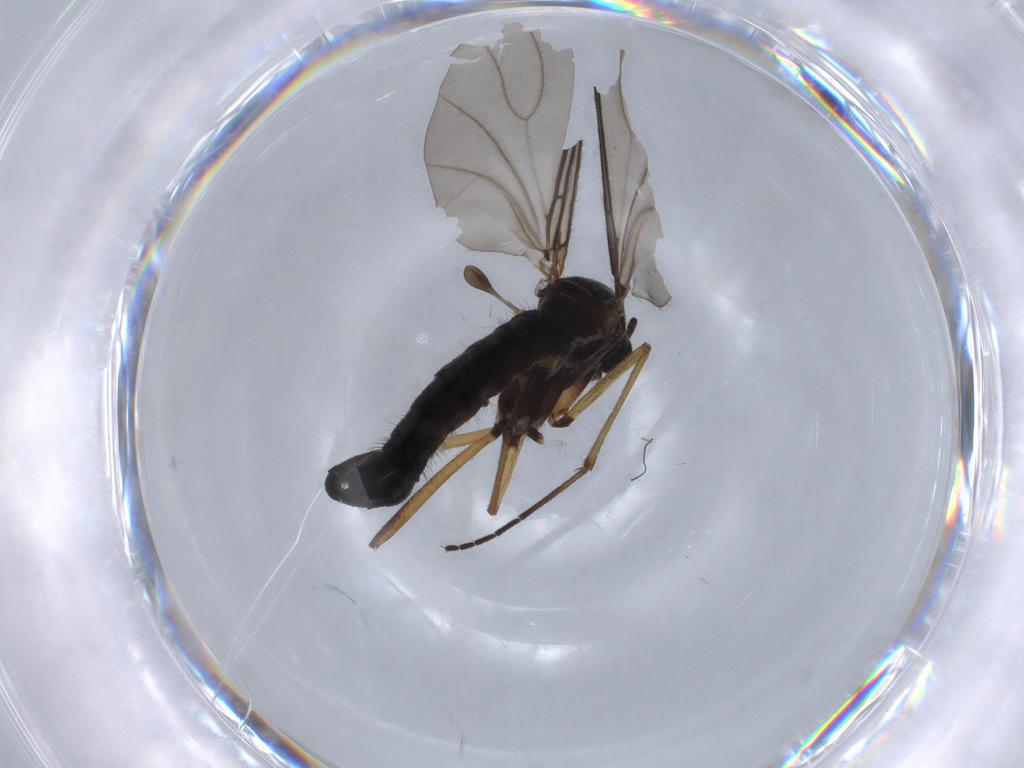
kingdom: Animalia
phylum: Arthropoda
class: Insecta
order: Diptera
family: Sciaridae
